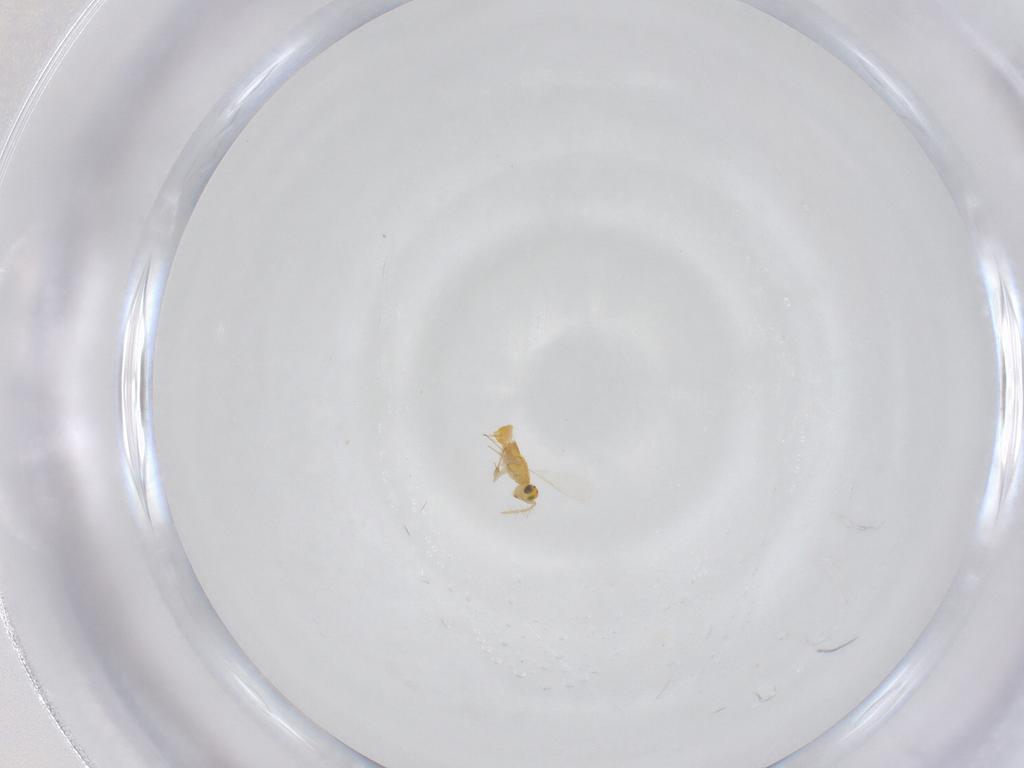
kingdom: Animalia
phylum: Arthropoda
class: Insecta
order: Hymenoptera
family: Aphelinidae
